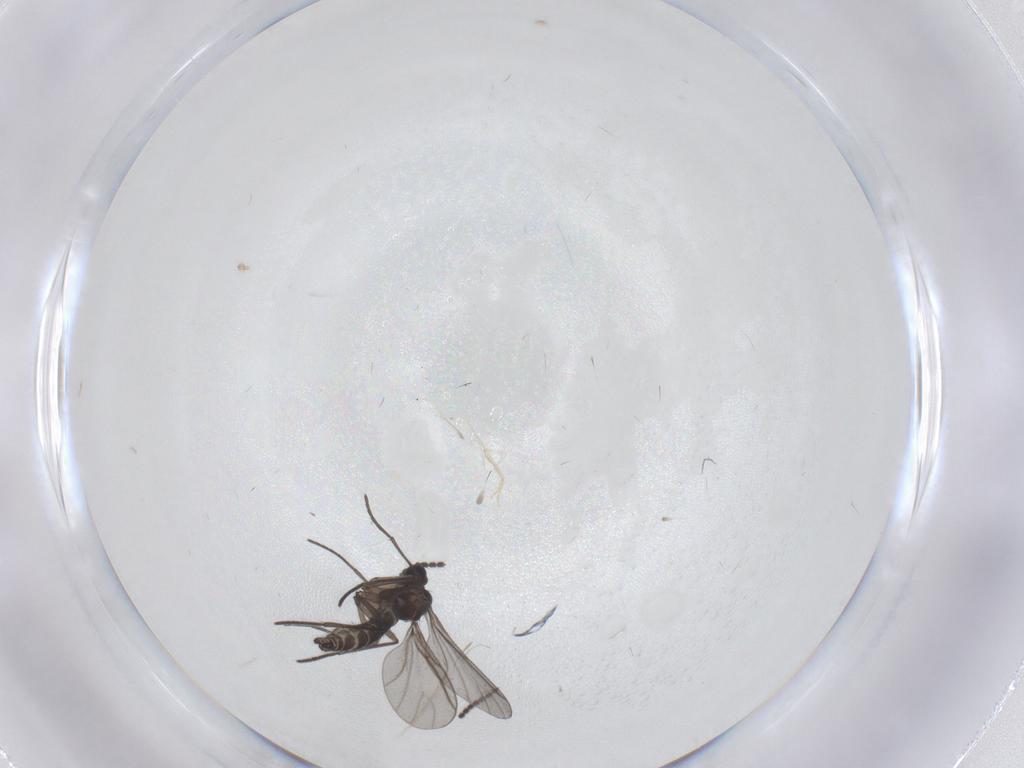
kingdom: Animalia
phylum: Arthropoda
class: Insecta
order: Diptera
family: Psychodidae
